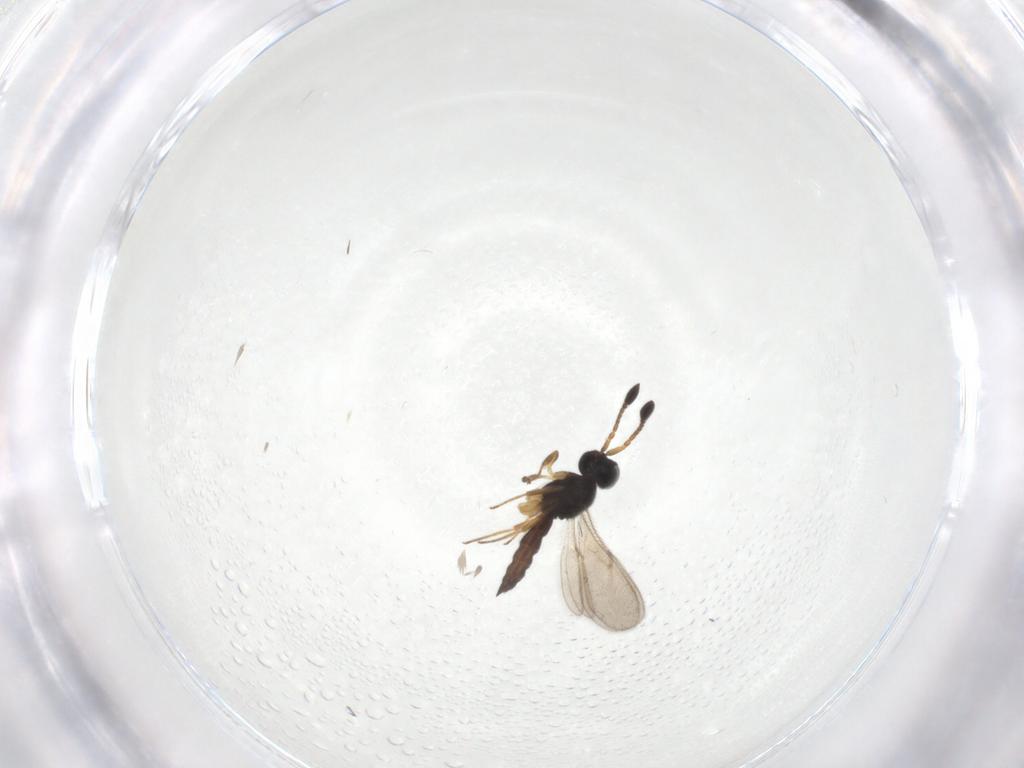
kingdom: Animalia
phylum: Arthropoda
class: Insecta
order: Hymenoptera
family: Scelionidae
